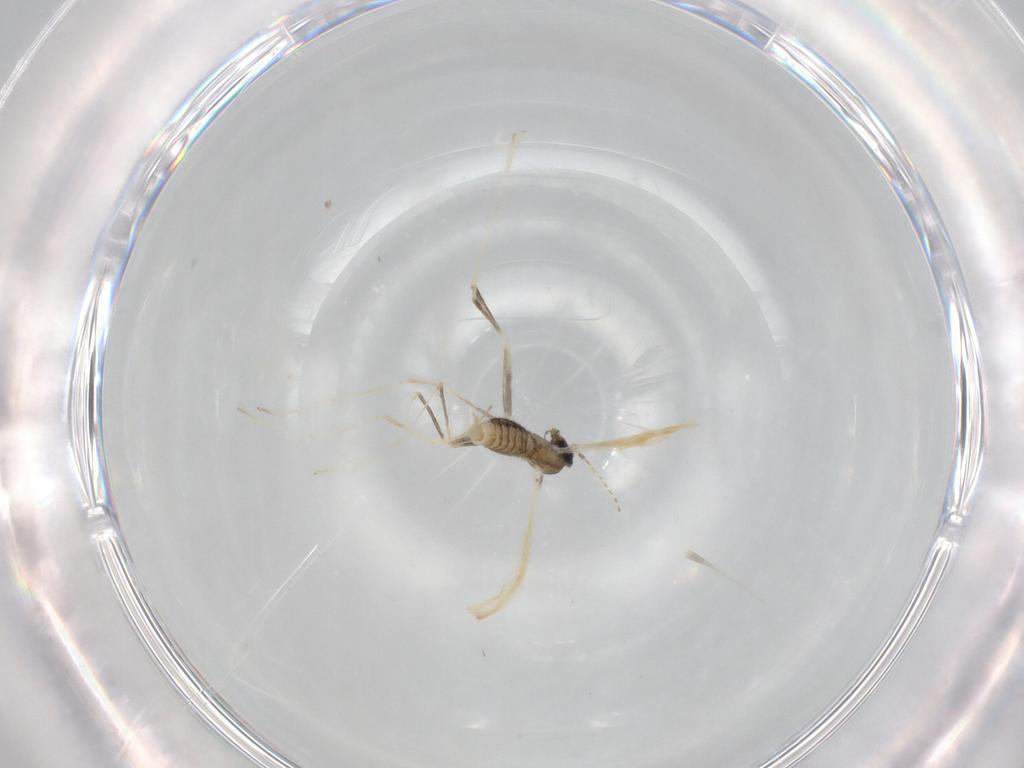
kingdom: Animalia
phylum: Arthropoda
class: Insecta
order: Diptera
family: Cecidomyiidae
